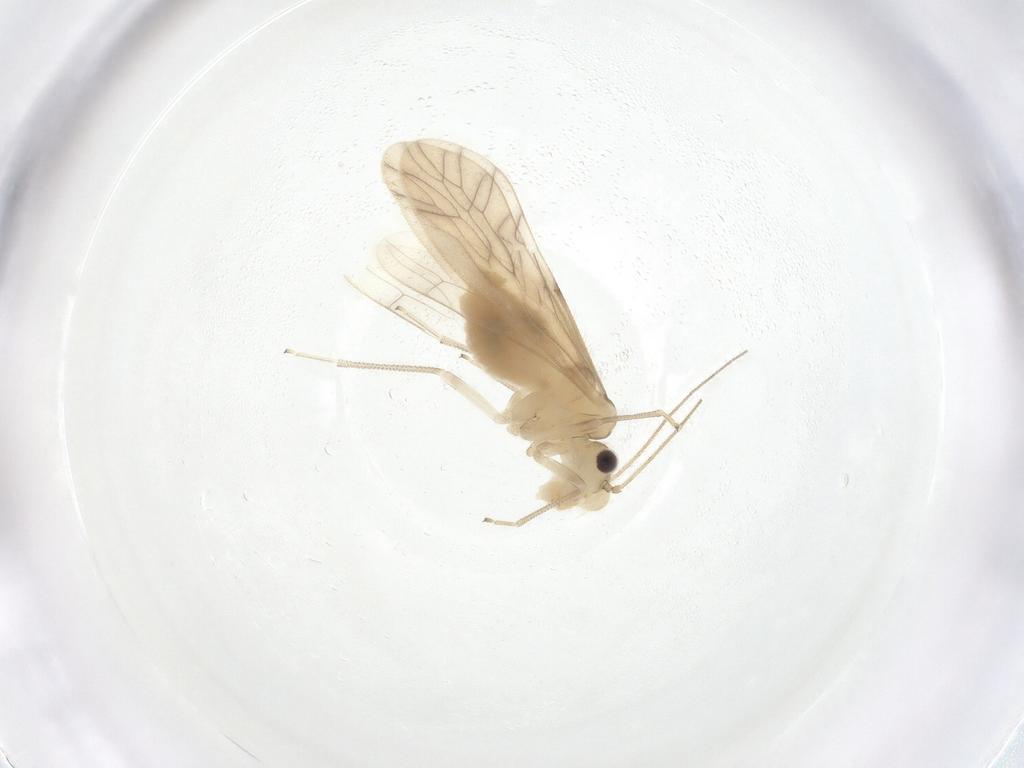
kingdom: Animalia
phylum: Arthropoda
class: Insecta
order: Psocodea
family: Caeciliusidae
